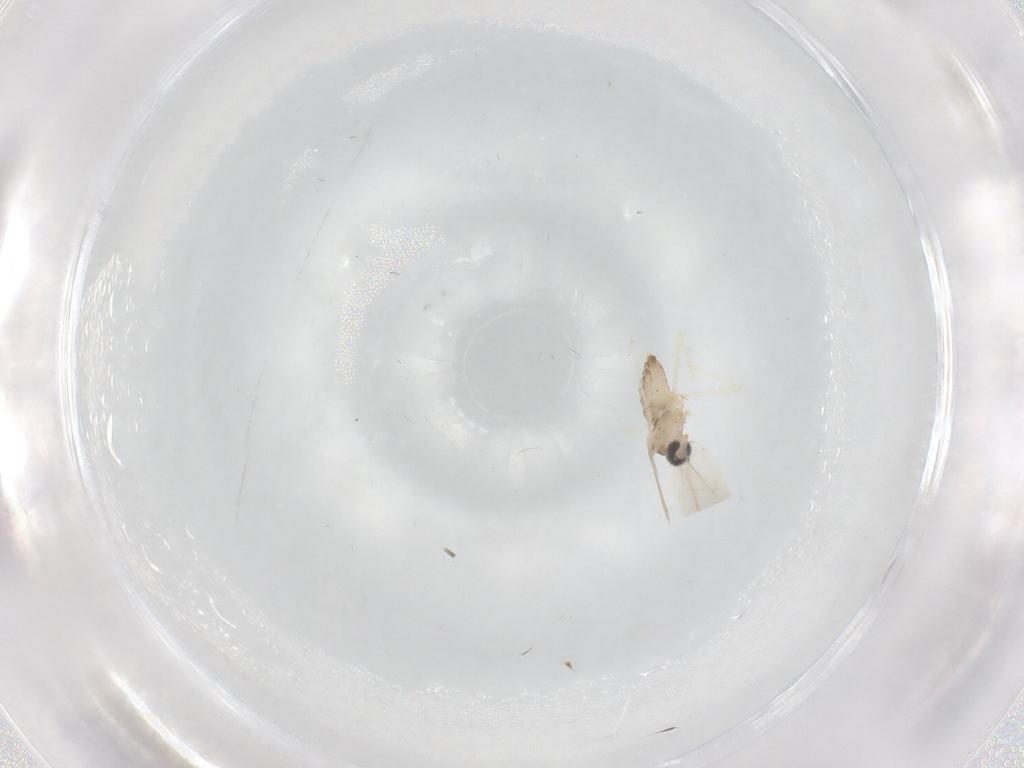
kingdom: Animalia
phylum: Arthropoda
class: Insecta
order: Diptera
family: Cecidomyiidae
